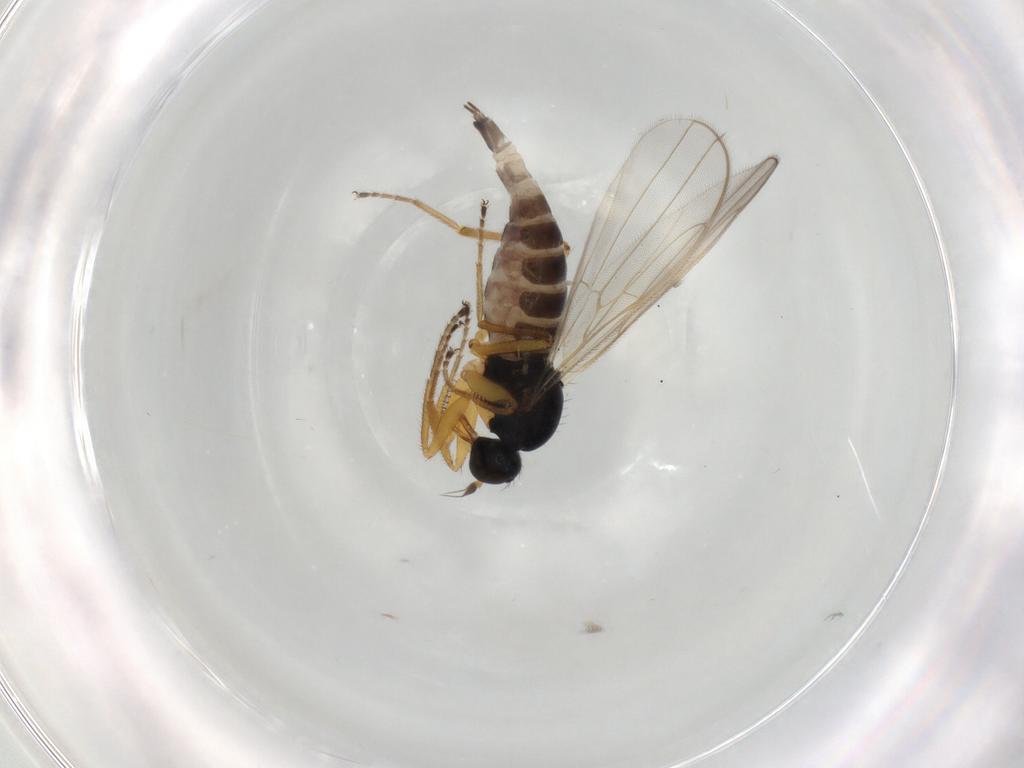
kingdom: Animalia
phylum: Arthropoda
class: Insecta
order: Diptera
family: Hybotidae
